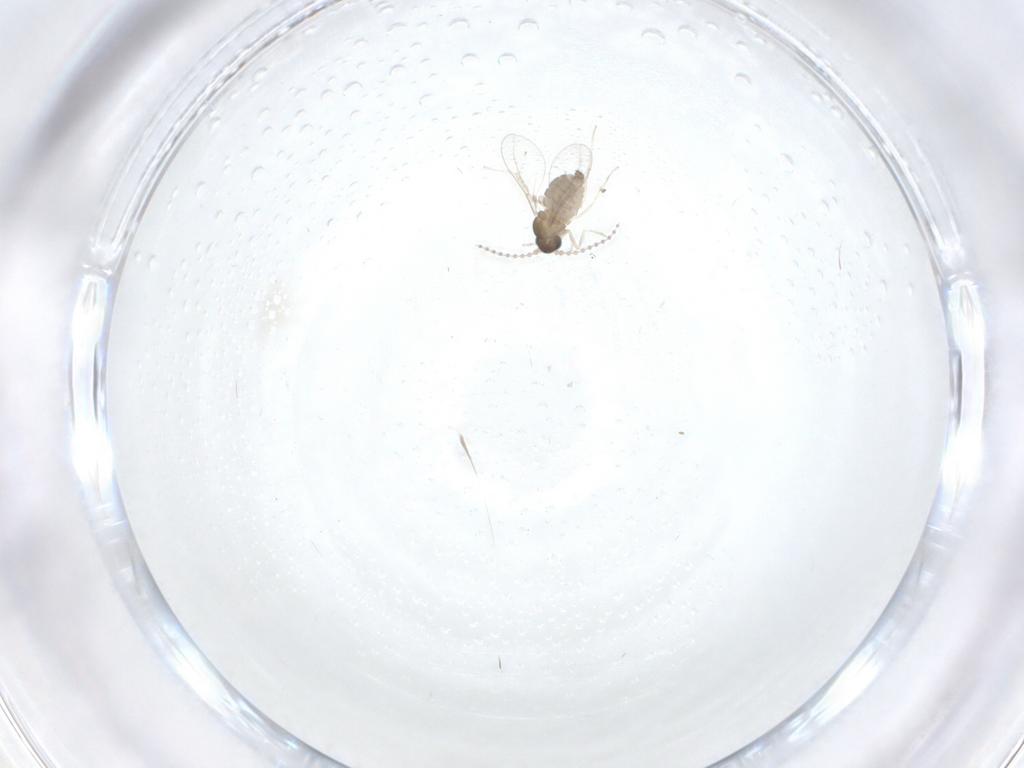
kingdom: Animalia
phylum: Arthropoda
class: Insecta
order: Diptera
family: Cecidomyiidae
